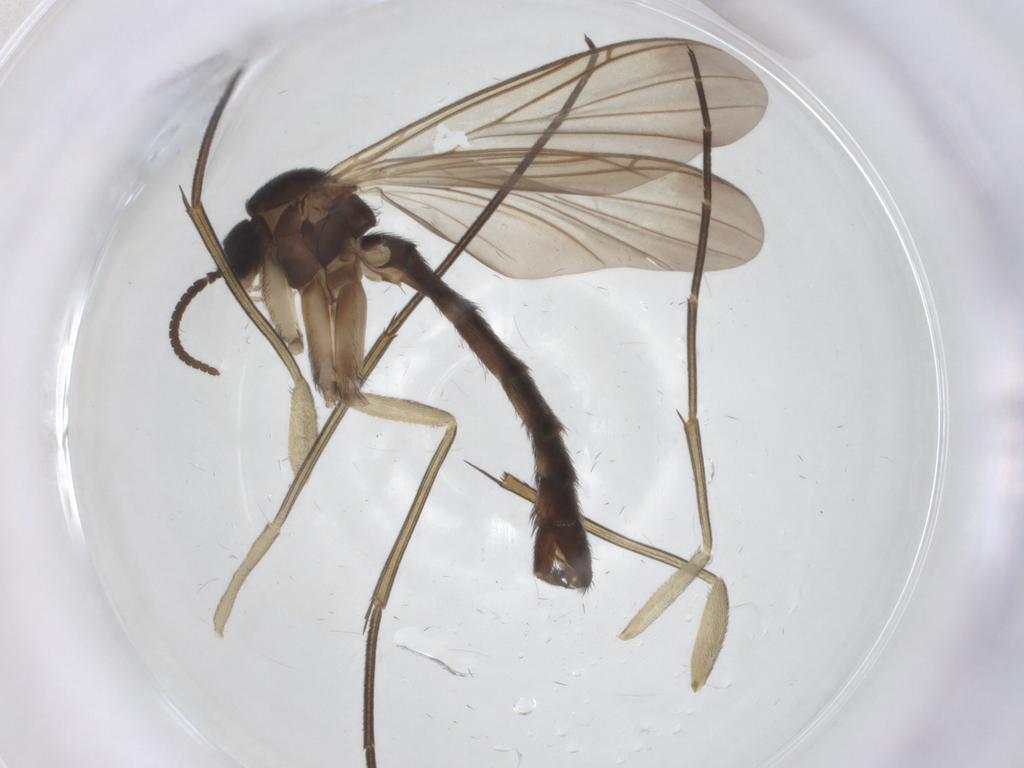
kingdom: Animalia
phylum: Arthropoda
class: Insecta
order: Diptera
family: Keroplatidae
